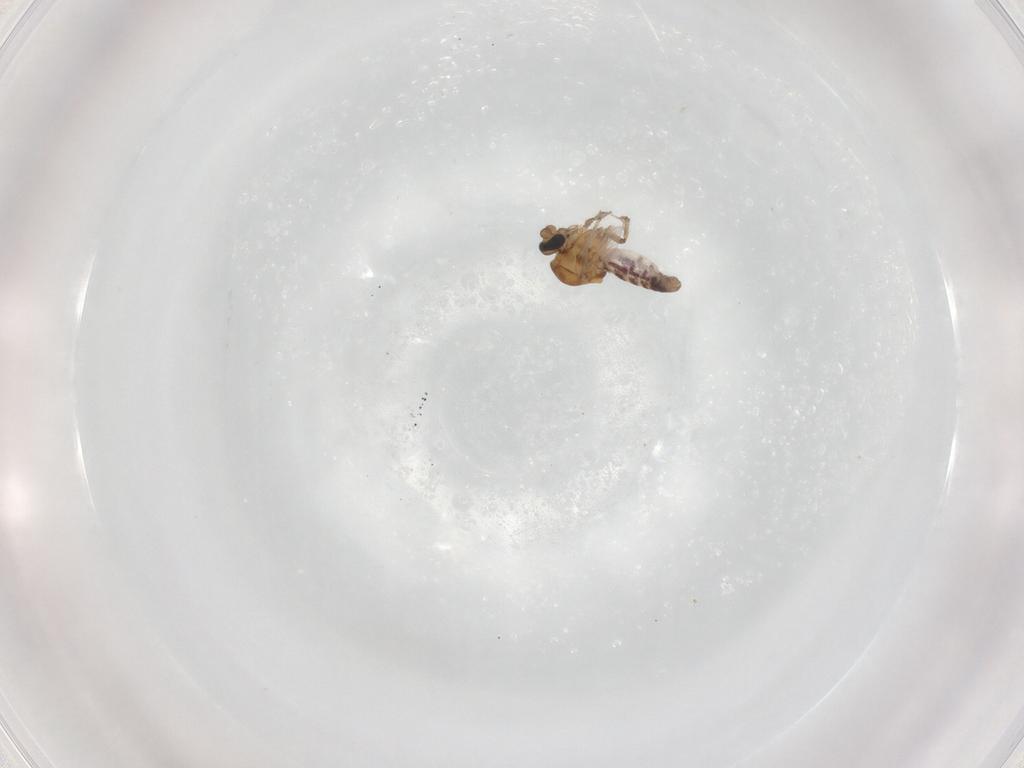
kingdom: Animalia
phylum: Arthropoda
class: Insecta
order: Diptera
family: Ceratopogonidae
